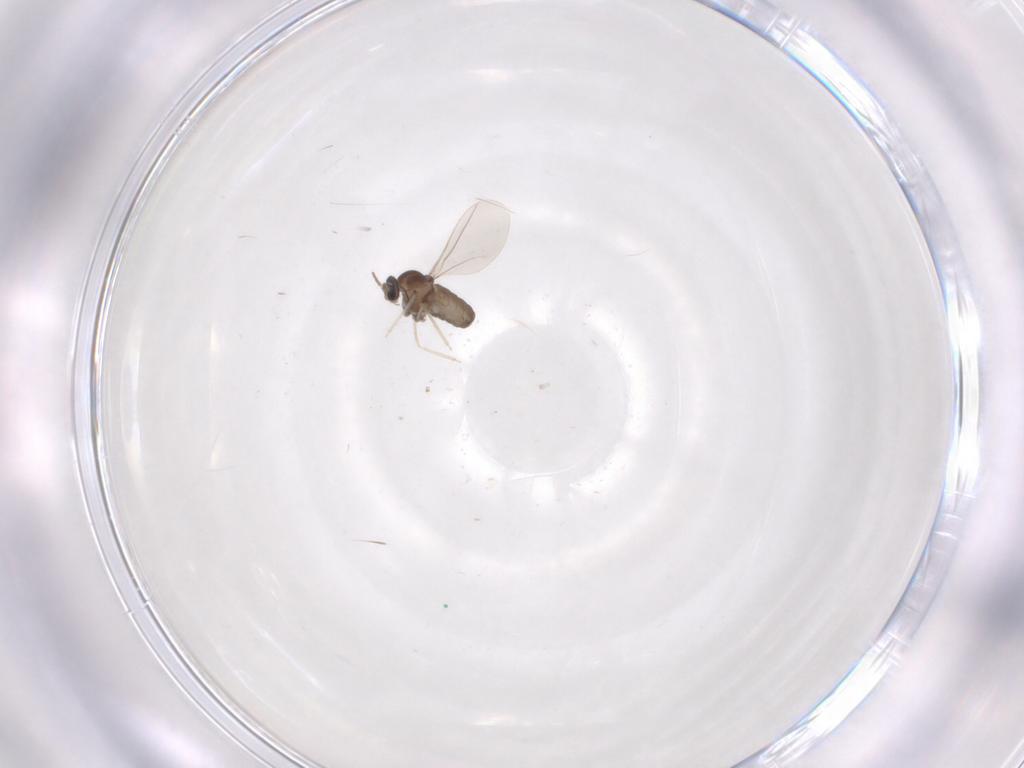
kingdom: Animalia
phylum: Arthropoda
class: Insecta
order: Diptera
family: Cecidomyiidae
